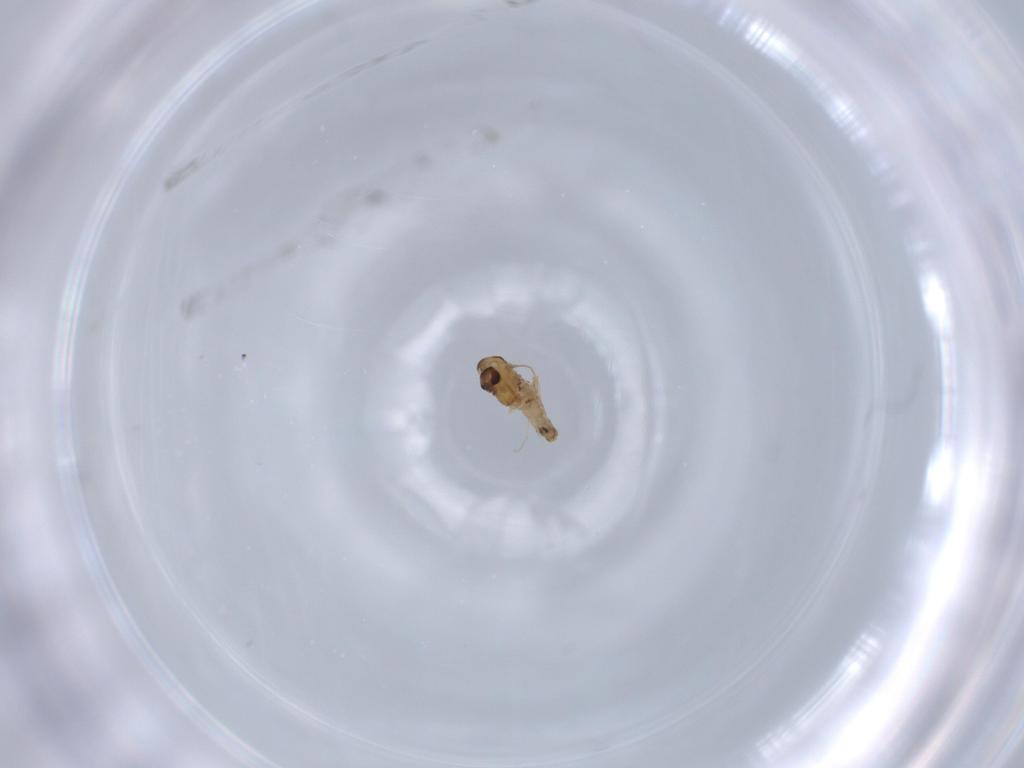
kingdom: Animalia
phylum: Arthropoda
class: Insecta
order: Diptera
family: Syrphidae
